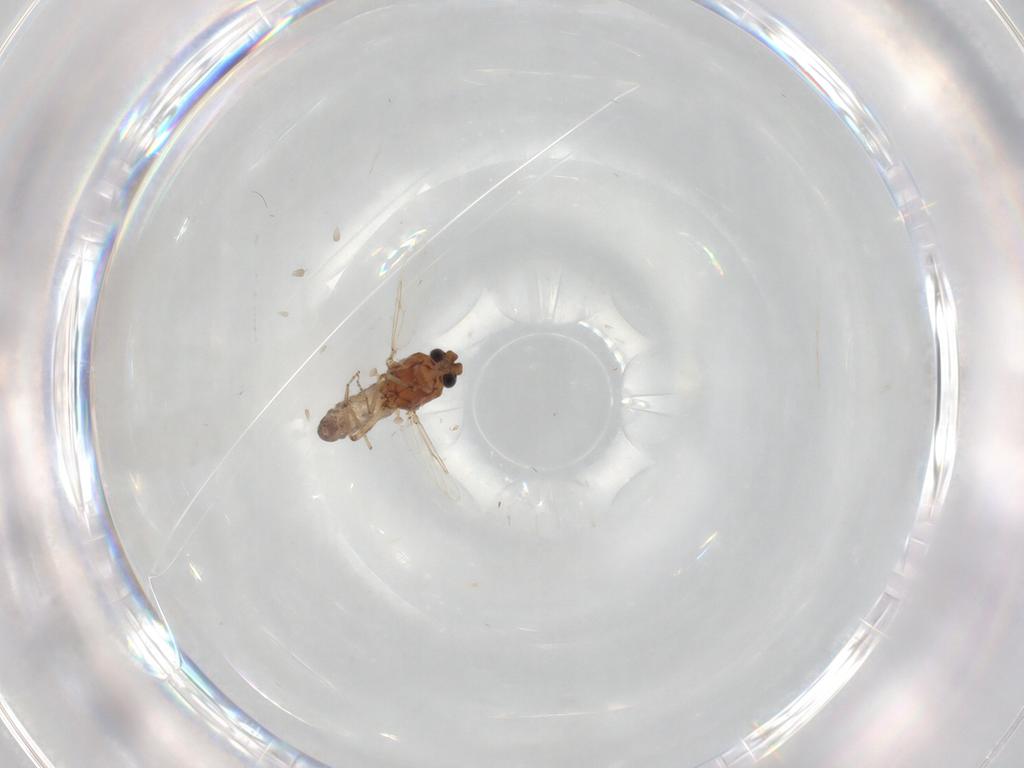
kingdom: Animalia
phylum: Arthropoda
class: Insecta
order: Diptera
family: Ceratopogonidae
